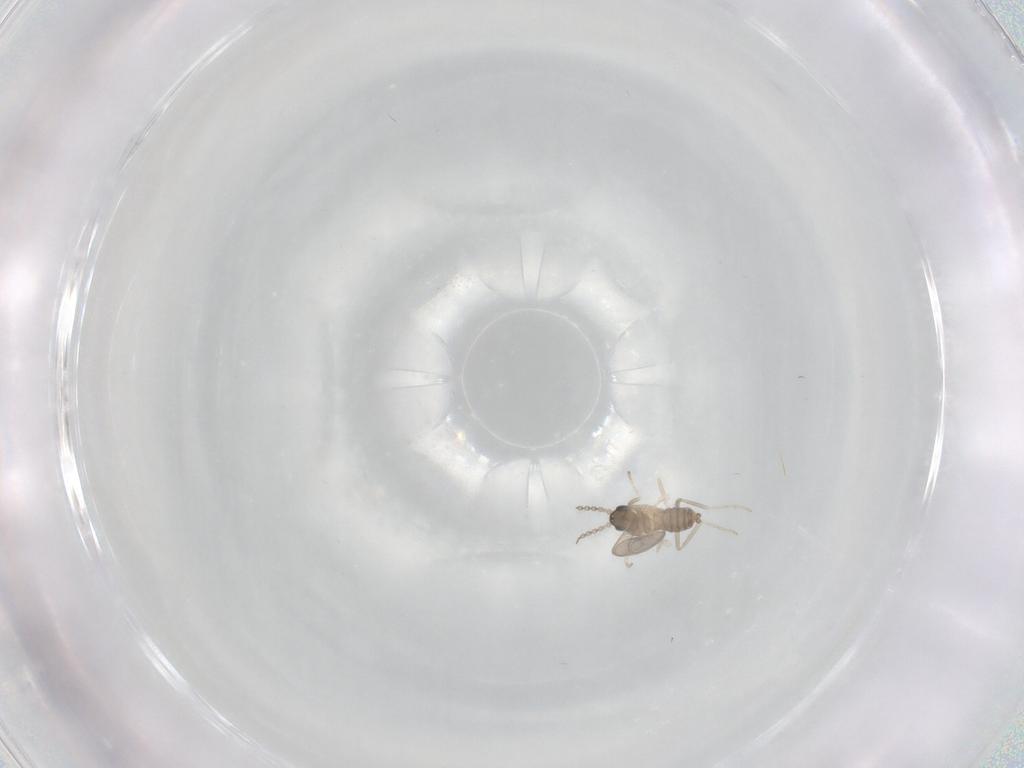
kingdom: Animalia
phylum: Arthropoda
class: Insecta
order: Diptera
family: Cecidomyiidae
